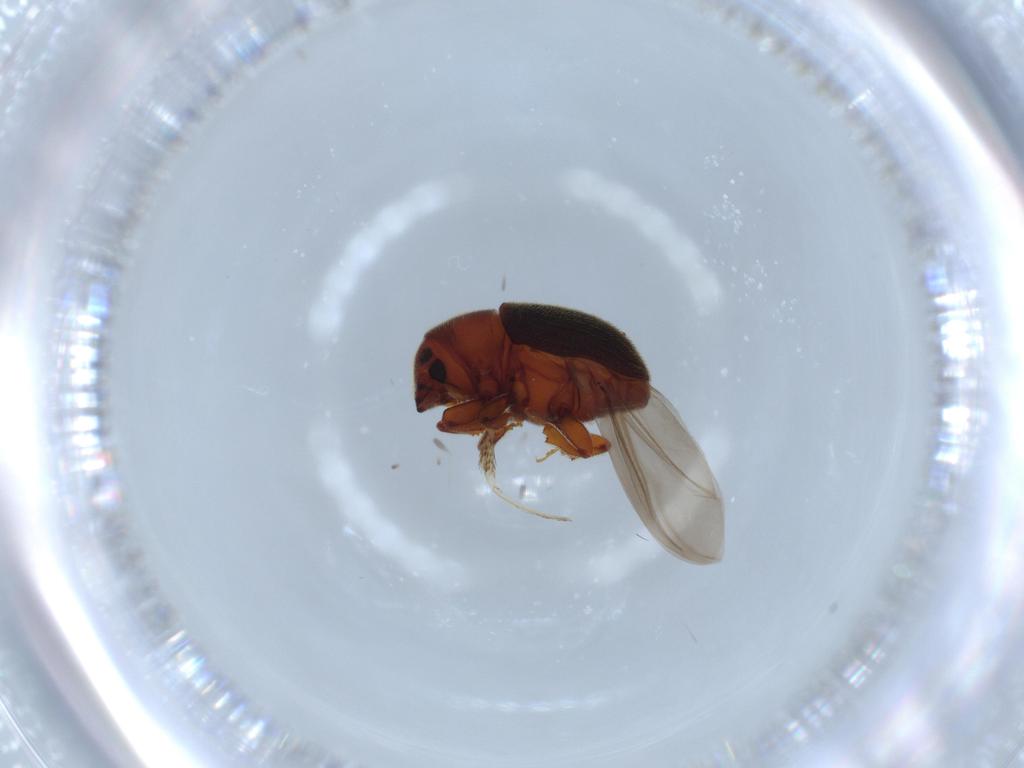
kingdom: Animalia
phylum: Arthropoda
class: Insecta
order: Coleoptera
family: Curculionidae
